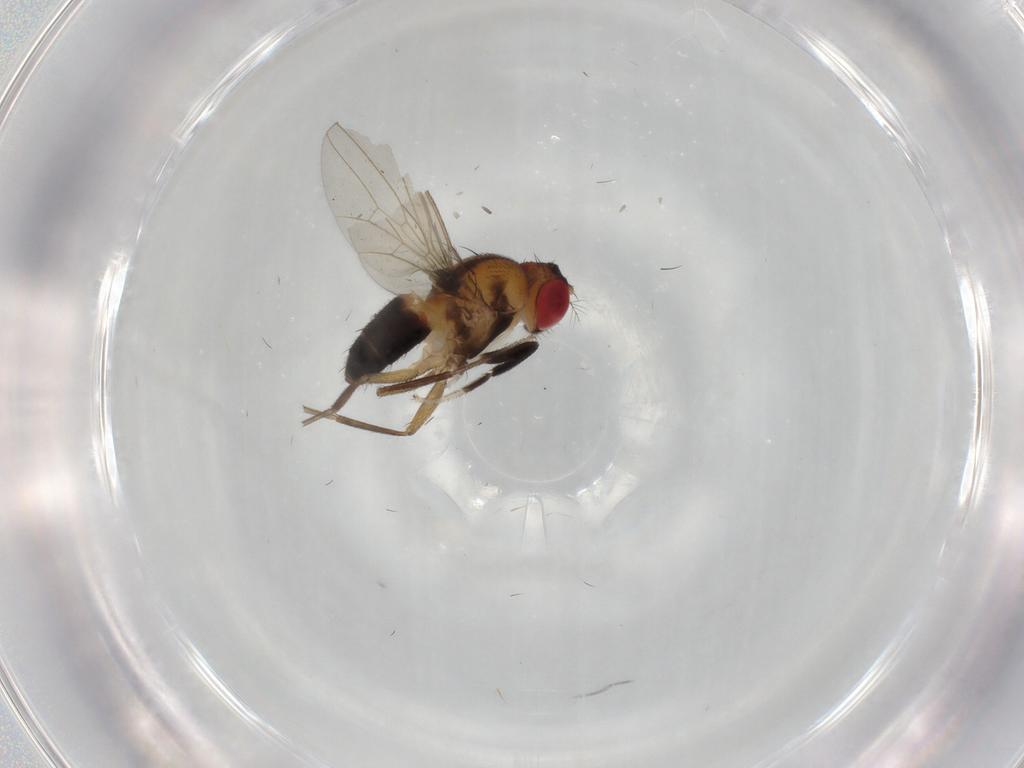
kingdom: Animalia
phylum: Arthropoda
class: Insecta
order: Diptera
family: Drosophilidae
